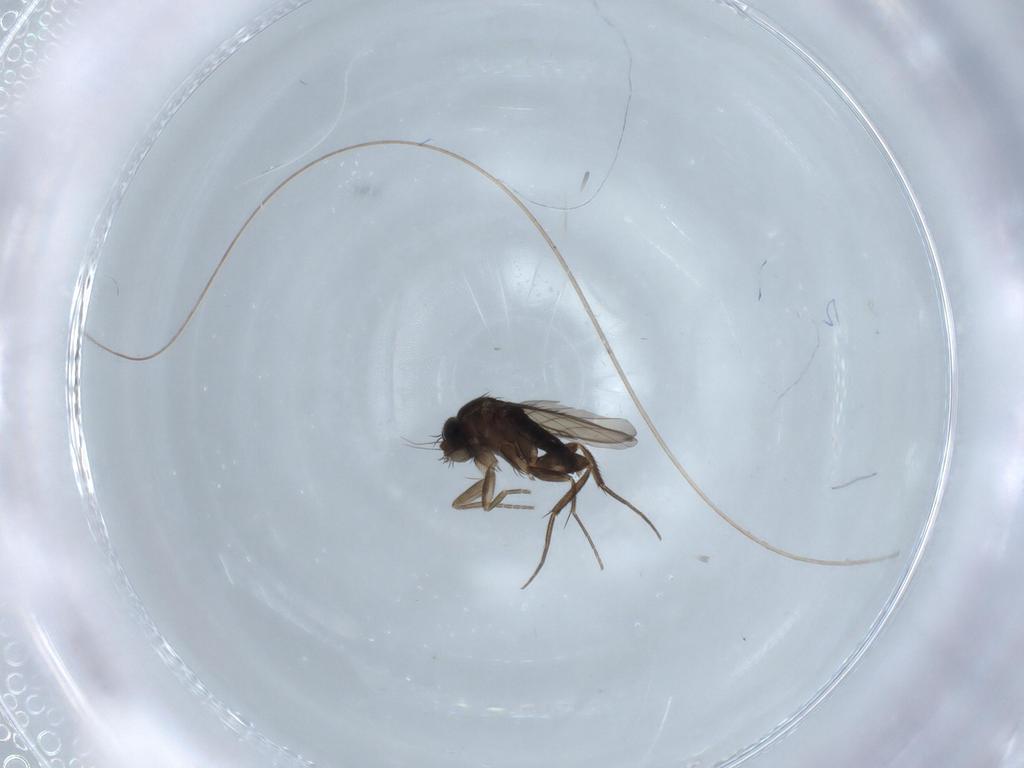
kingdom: Animalia
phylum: Arthropoda
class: Insecta
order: Diptera
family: Phoridae
